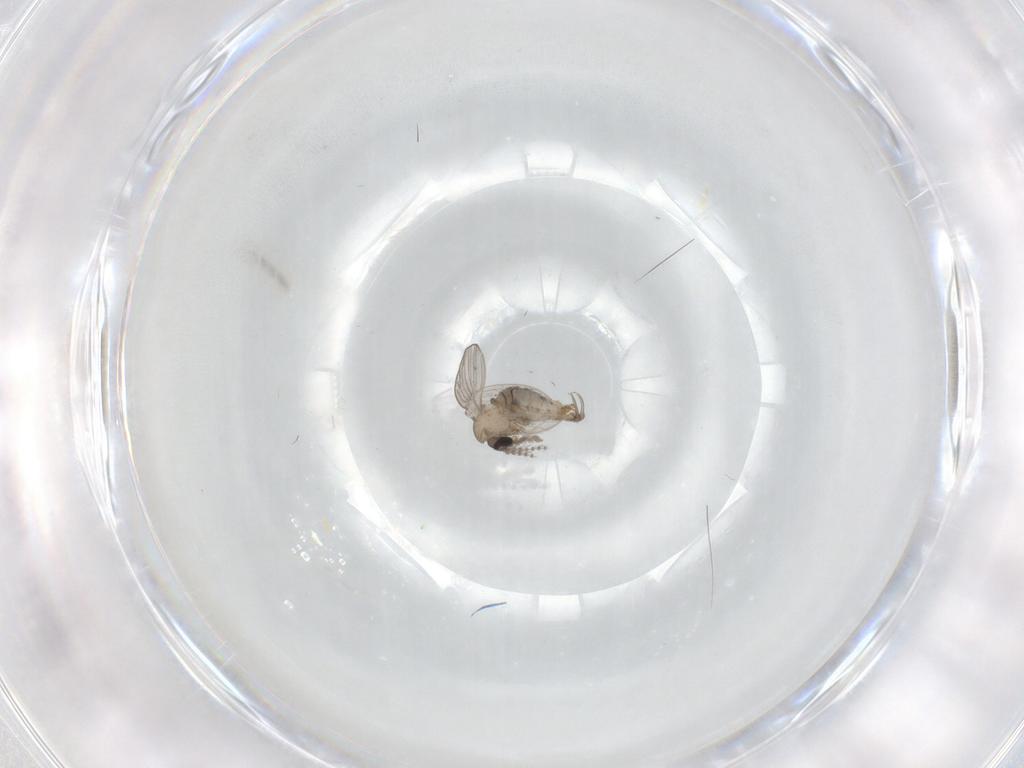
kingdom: Animalia
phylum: Arthropoda
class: Insecta
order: Diptera
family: Psychodidae
